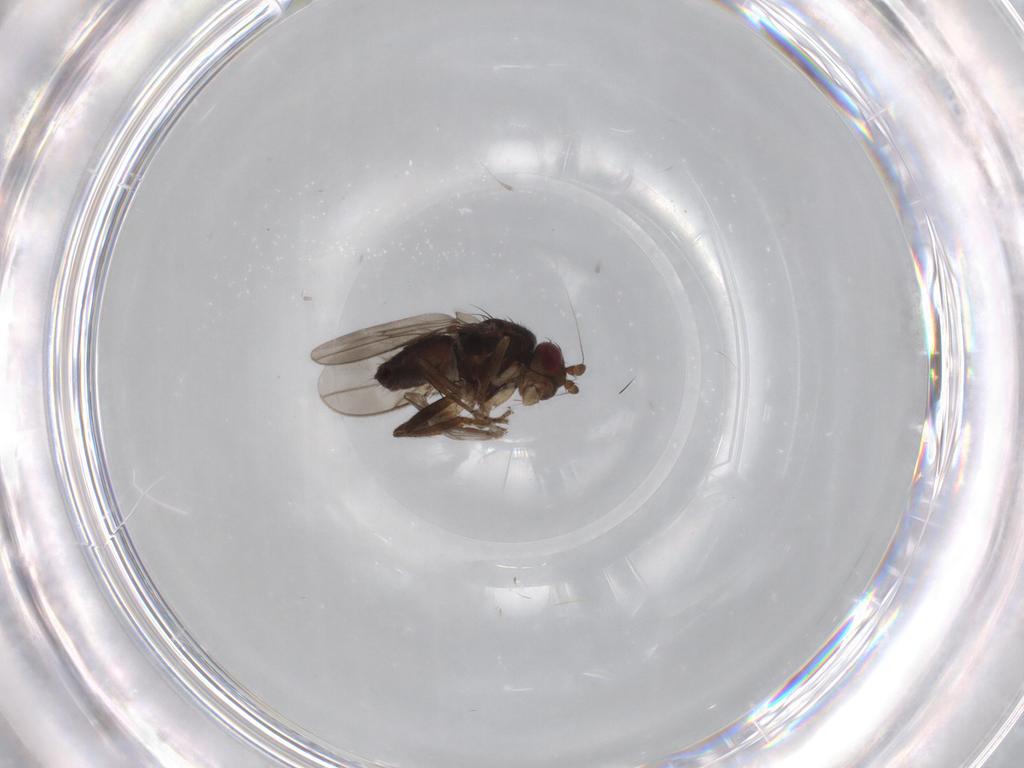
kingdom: Animalia
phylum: Arthropoda
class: Insecta
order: Diptera
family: Sphaeroceridae
